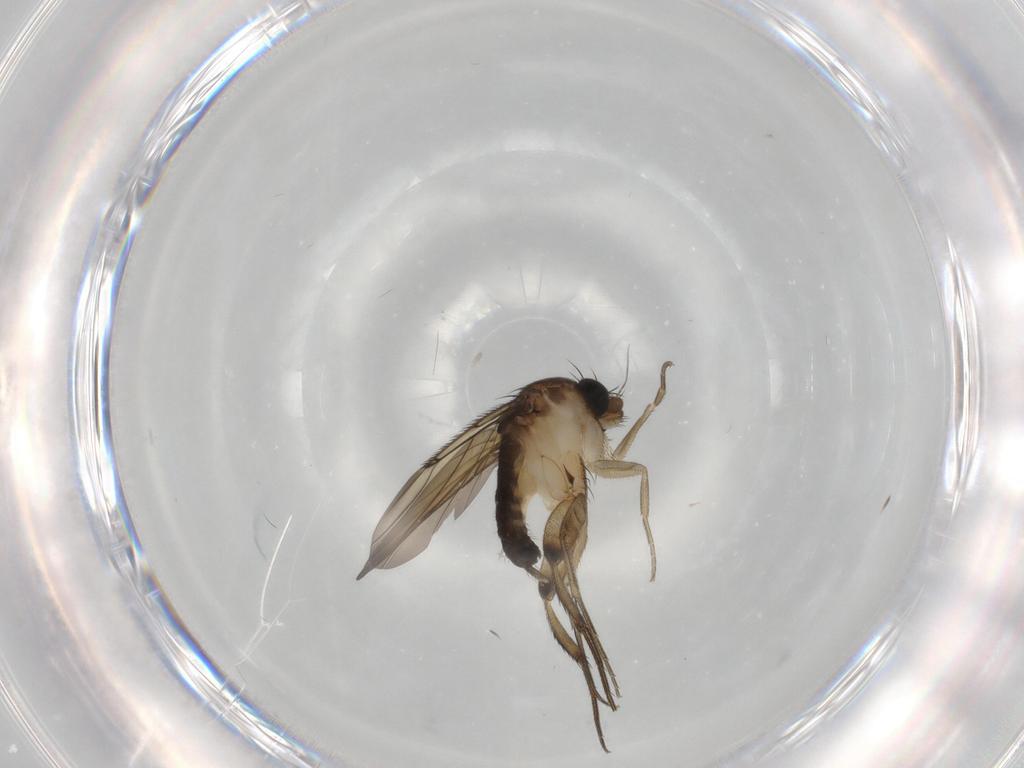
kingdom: Animalia
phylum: Arthropoda
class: Insecta
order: Diptera
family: Phoridae
